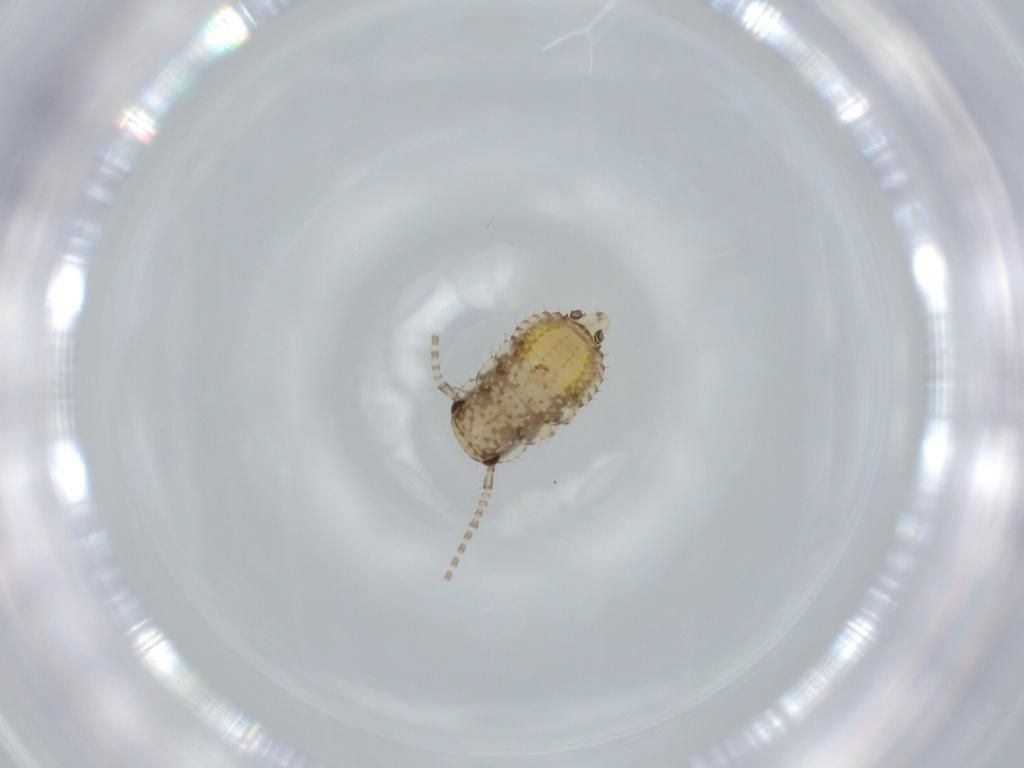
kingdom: Animalia
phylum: Arthropoda
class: Insecta
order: Blattodea
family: Ectobiidae
